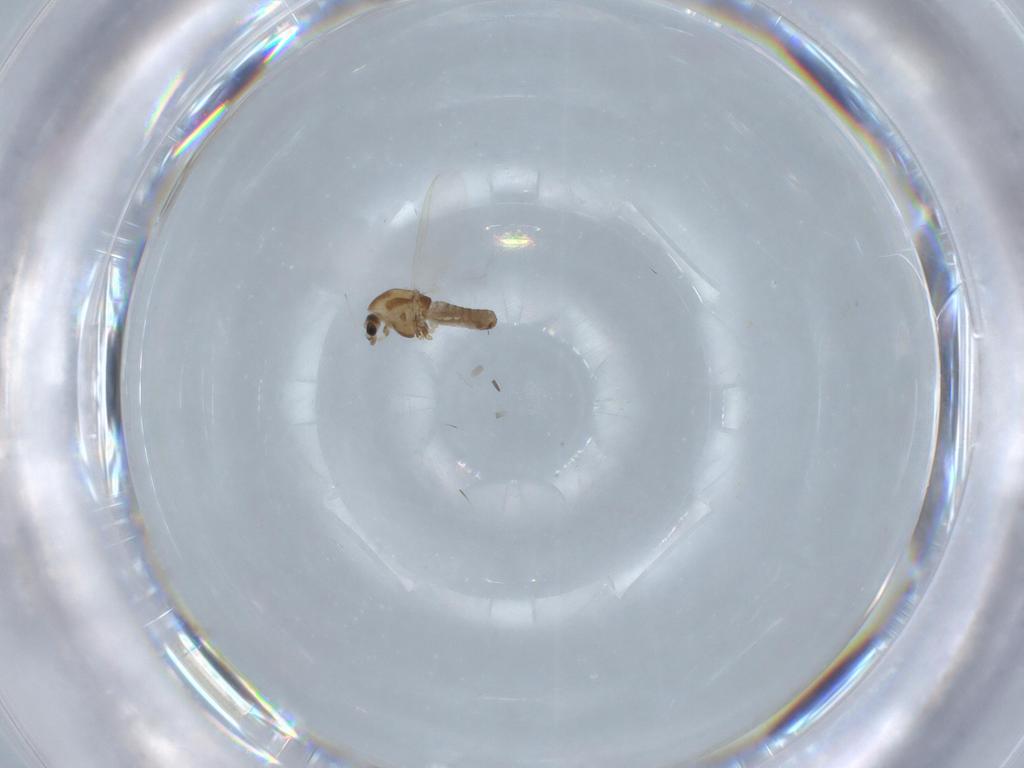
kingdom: Animalia
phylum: Arthropoda
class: Insecta
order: Diptera
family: Chironomidae
